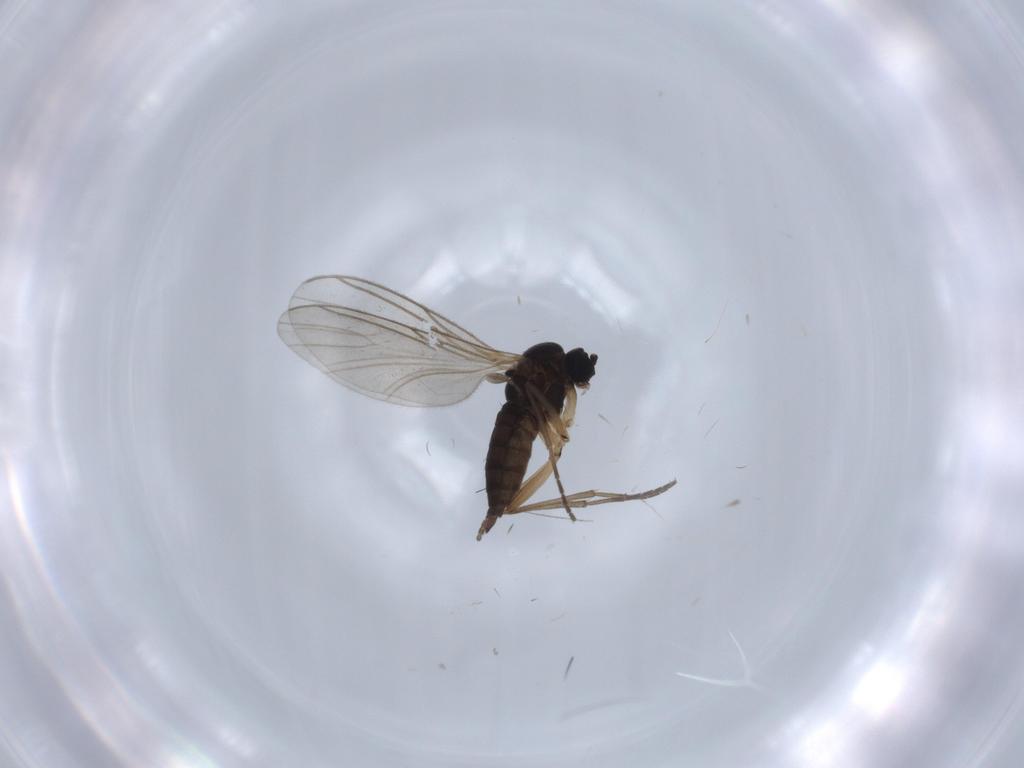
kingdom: Animalia
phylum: Arthropoda
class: Insecta
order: Diptera
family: Sciaridae
